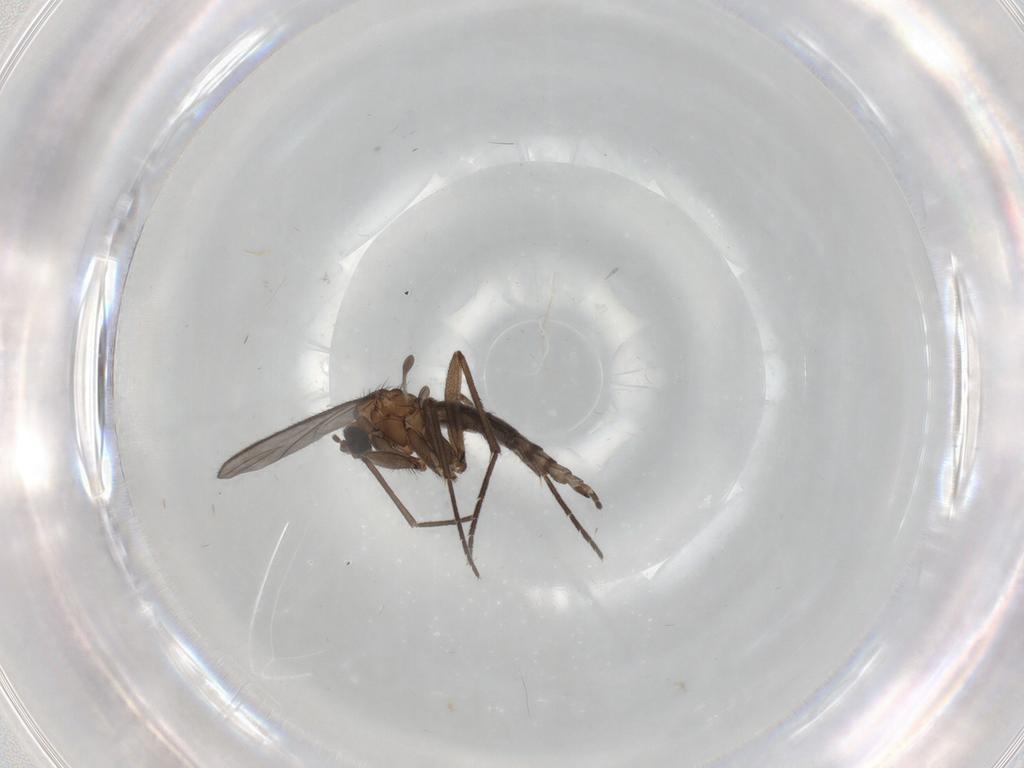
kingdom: Animalia
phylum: Arthropoda
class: Insecta
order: Diptera
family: Sciaridae
